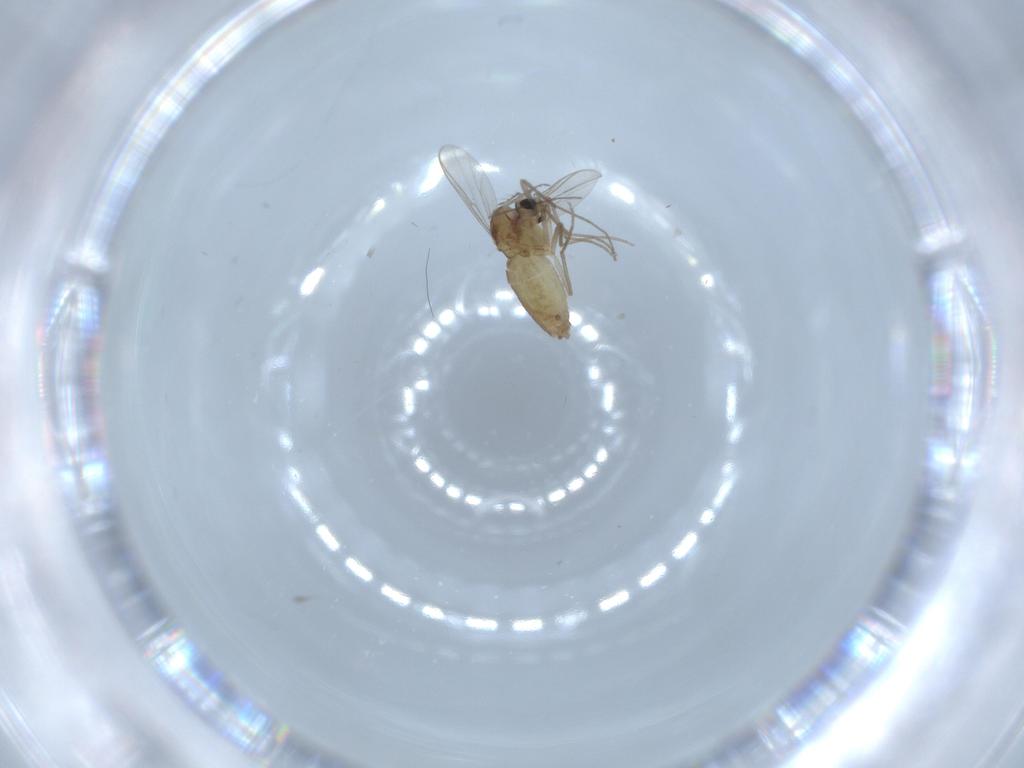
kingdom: Animalia
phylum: Arthropoda
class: Insecta
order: Diptera
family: Chironomidae
